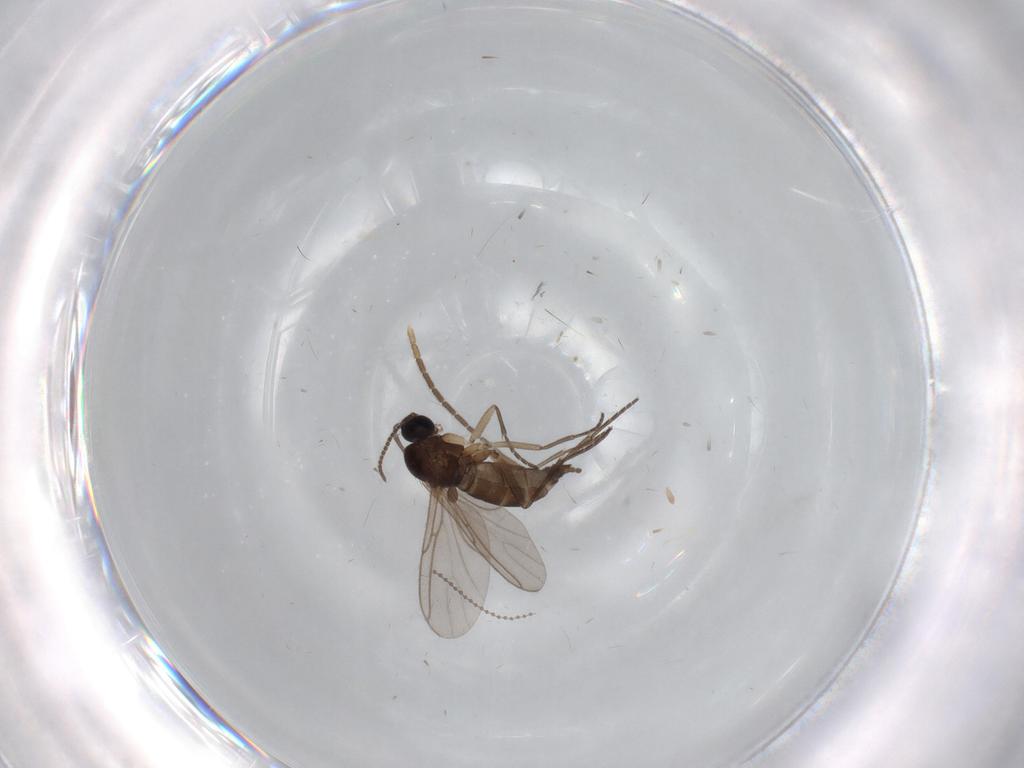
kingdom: Animalia
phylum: Arthropoda
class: Insecta
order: Diptera
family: Sciaridae
